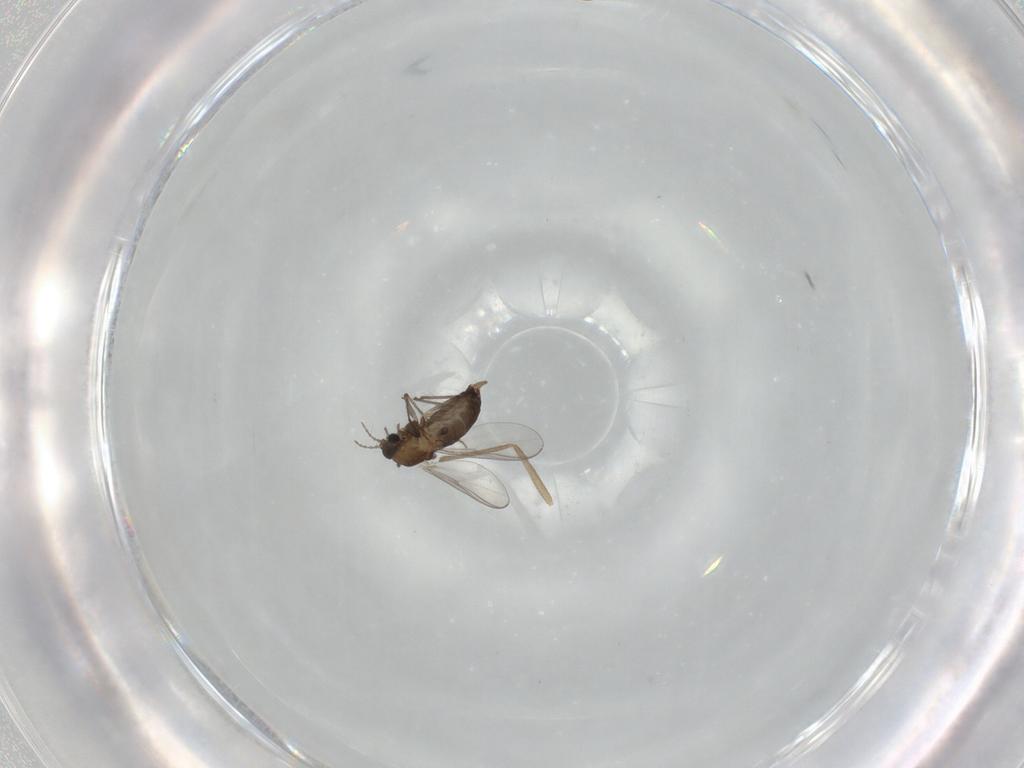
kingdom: Animalia
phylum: Arthropoda
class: Insecta
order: Diptera
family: Chironomidae
